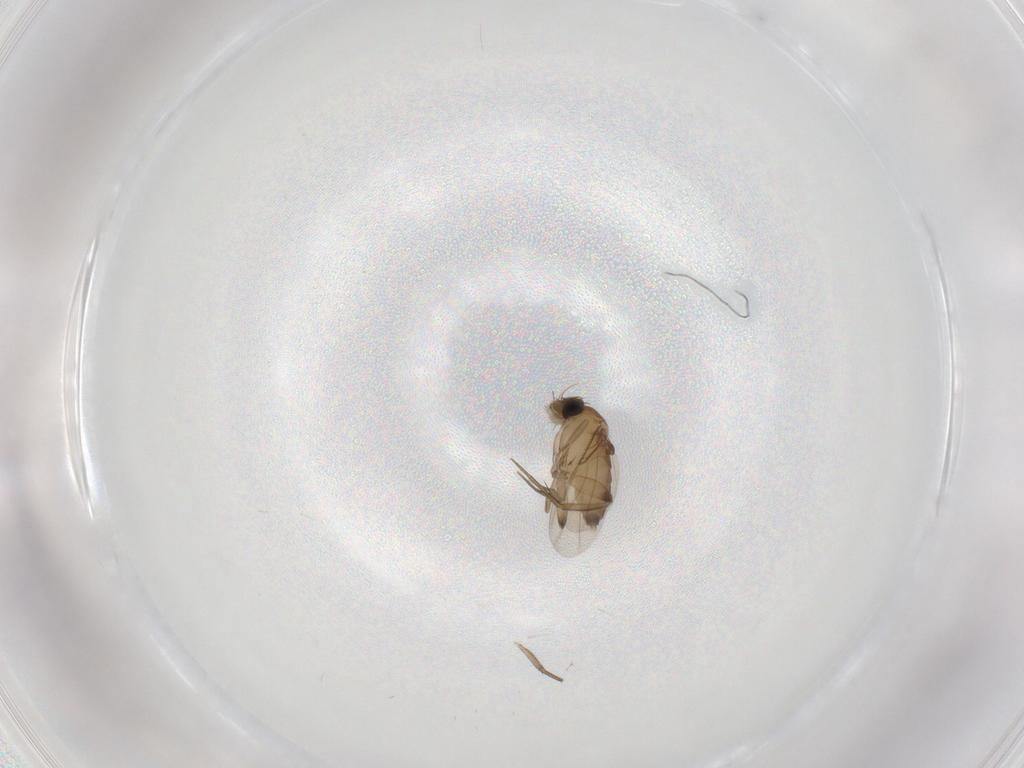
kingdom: Animalia
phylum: Arthropoda
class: Insecta
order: Diptera
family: Phoridae
